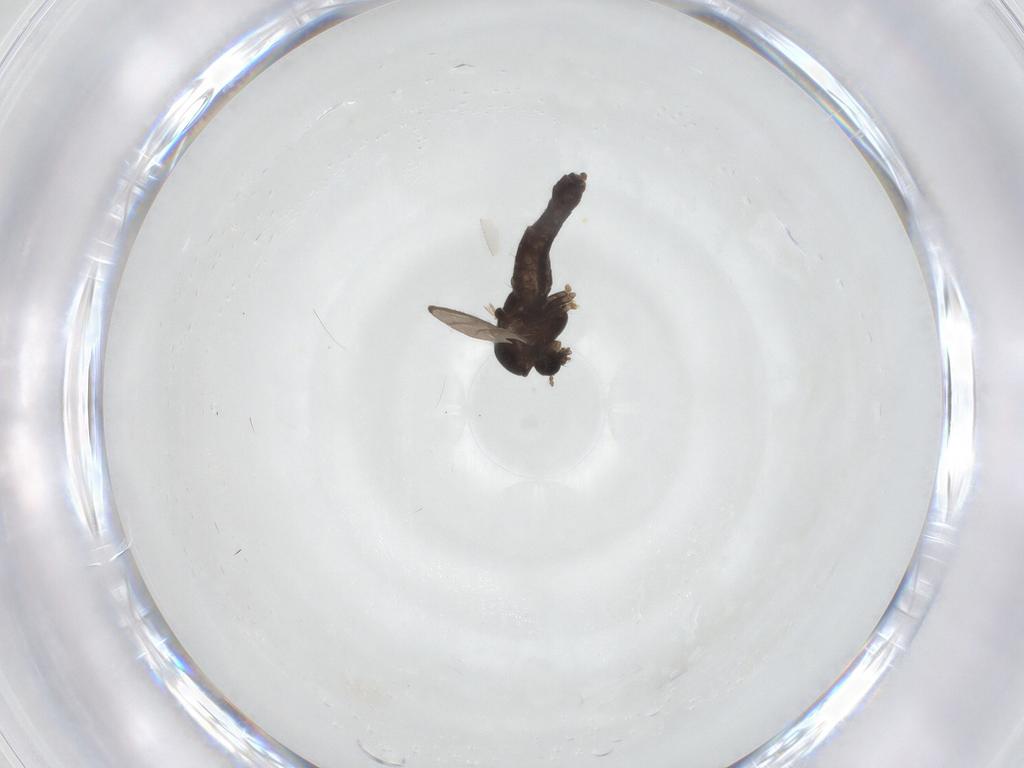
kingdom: Animalia
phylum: Arthropoda
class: Insecta
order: Diptera
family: Chironomidae
